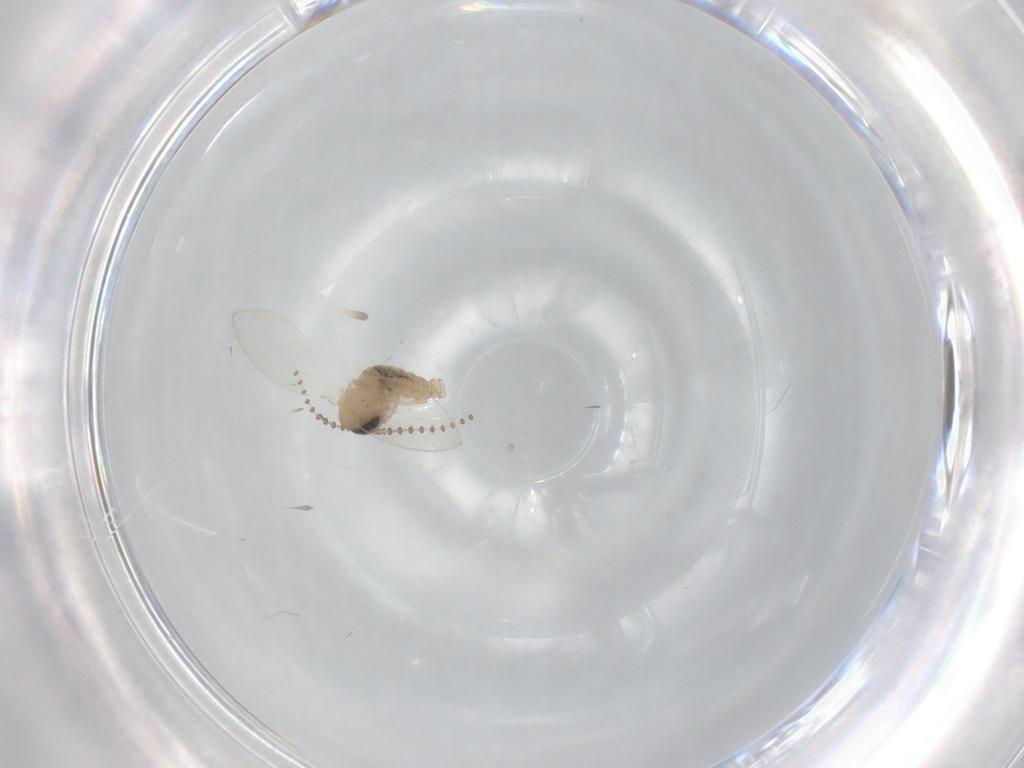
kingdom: Animalia
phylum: Arthropoda
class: Insecta
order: Diptera
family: Psychodidae
